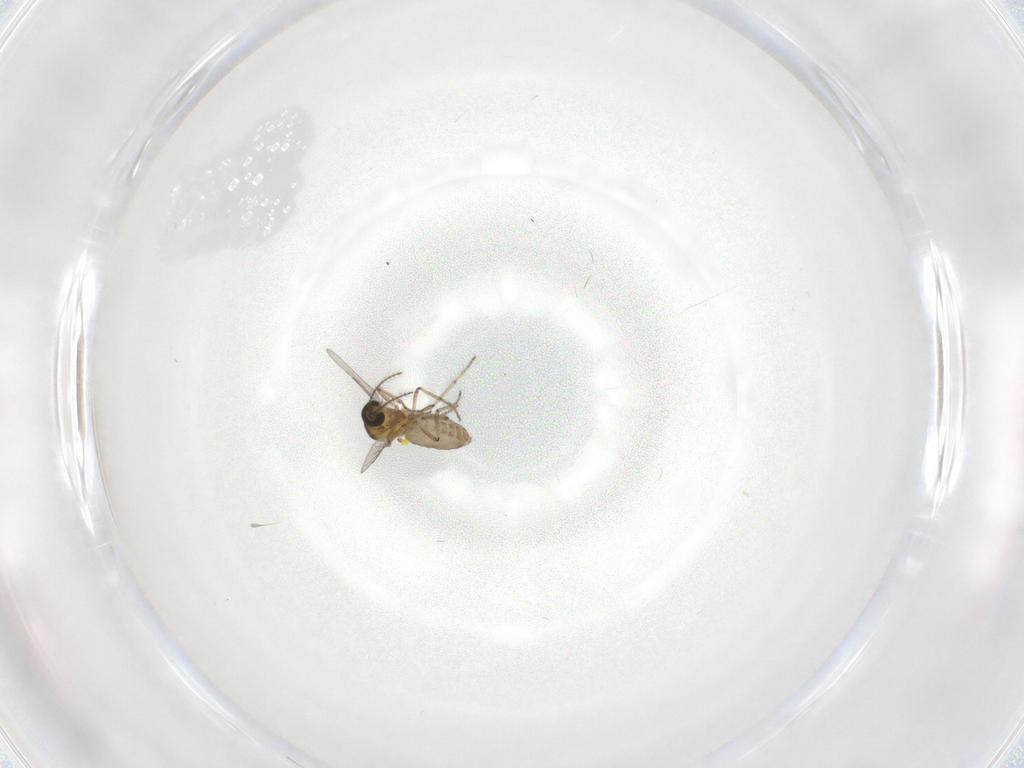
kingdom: Animalia
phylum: Arthropoda
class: Insecta
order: Diptera
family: Ceratopogonidae
